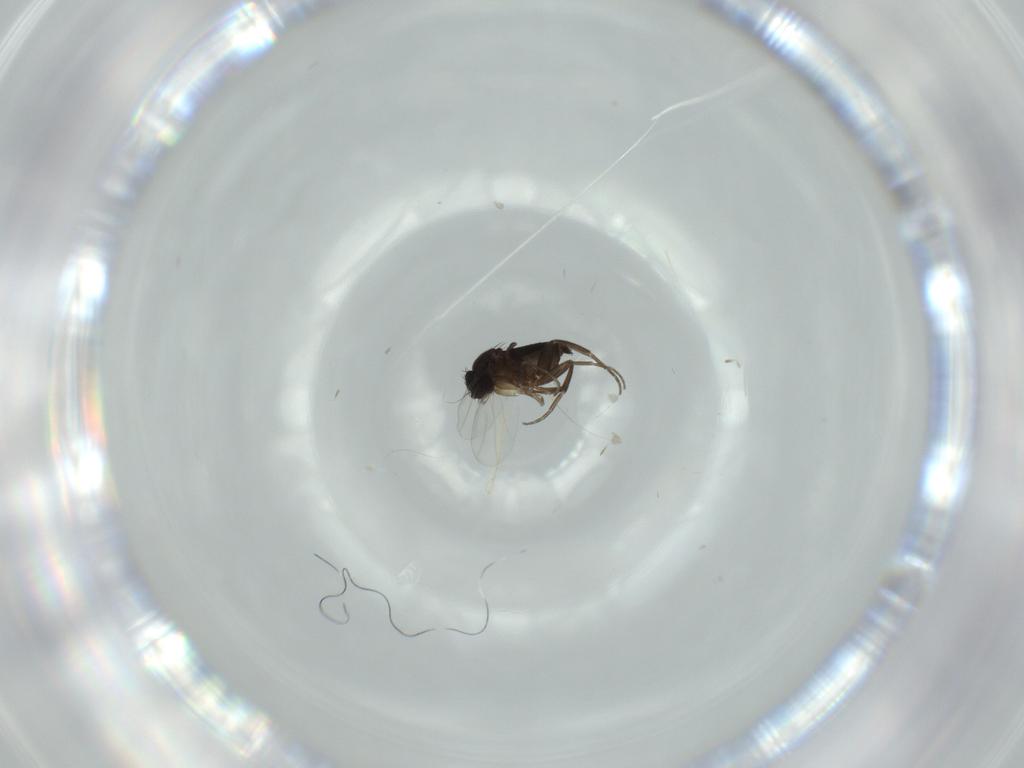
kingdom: Animalia
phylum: Arthropoda
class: Insecta
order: Diptera
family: Phoridae
